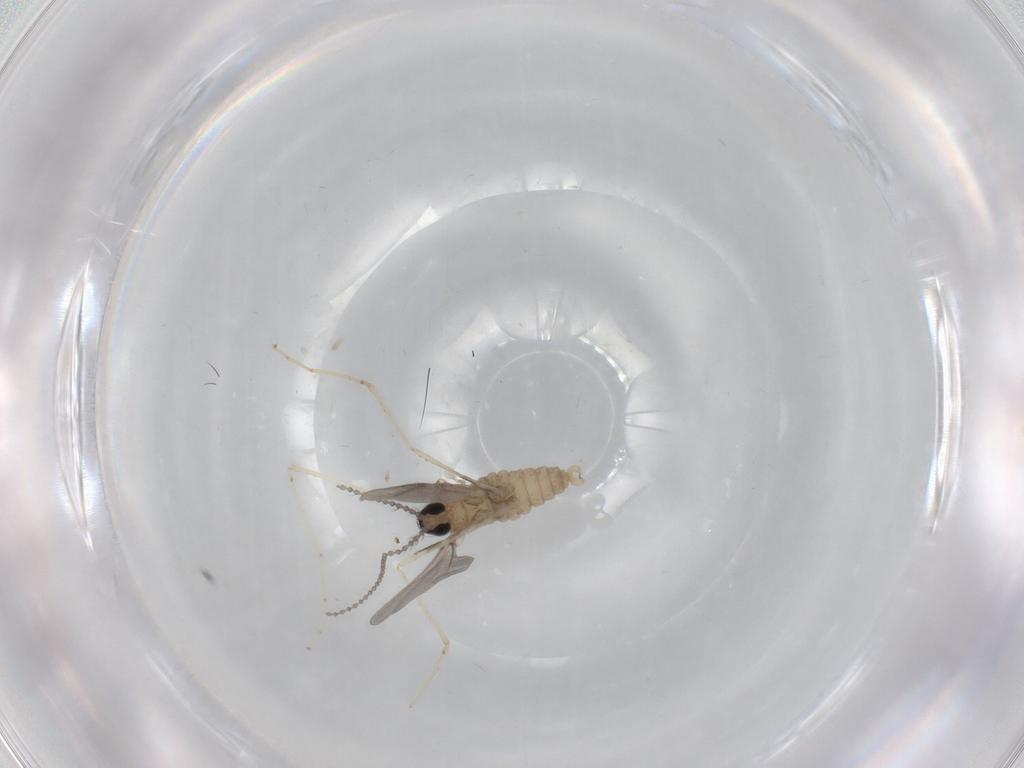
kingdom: Animalia
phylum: Arthropoda
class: Insecta
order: Diptera
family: Cecidomyiidae
